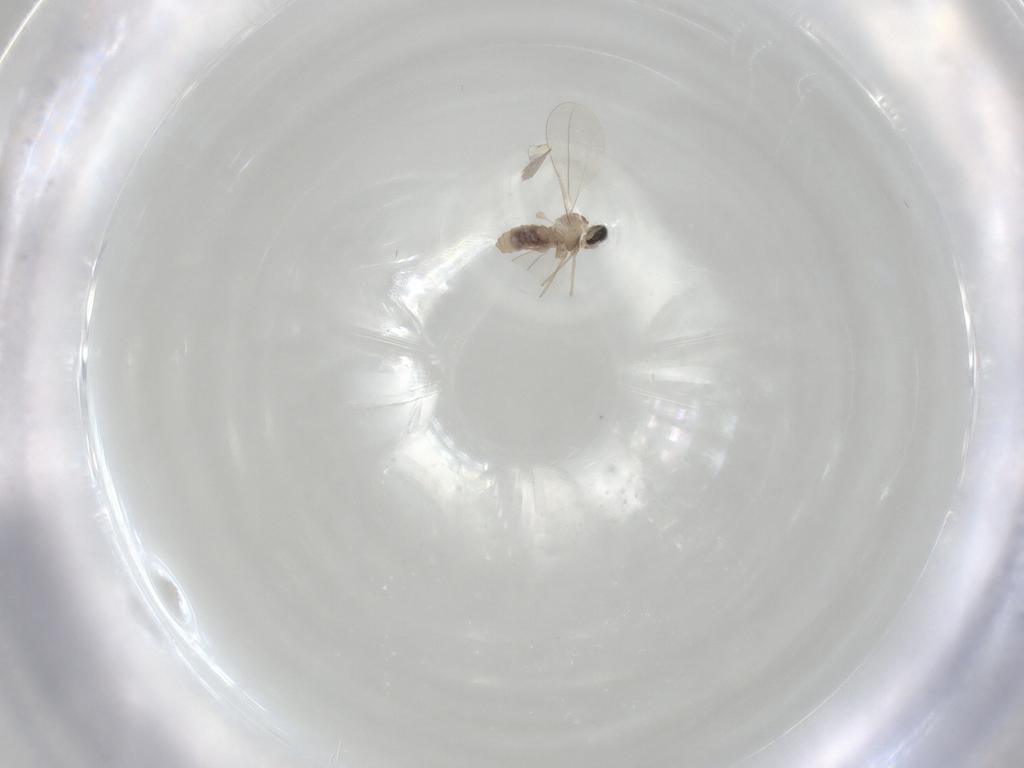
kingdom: Animalia
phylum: Arthropoda
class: Insecta
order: Diptera
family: Cecidomyiidae
